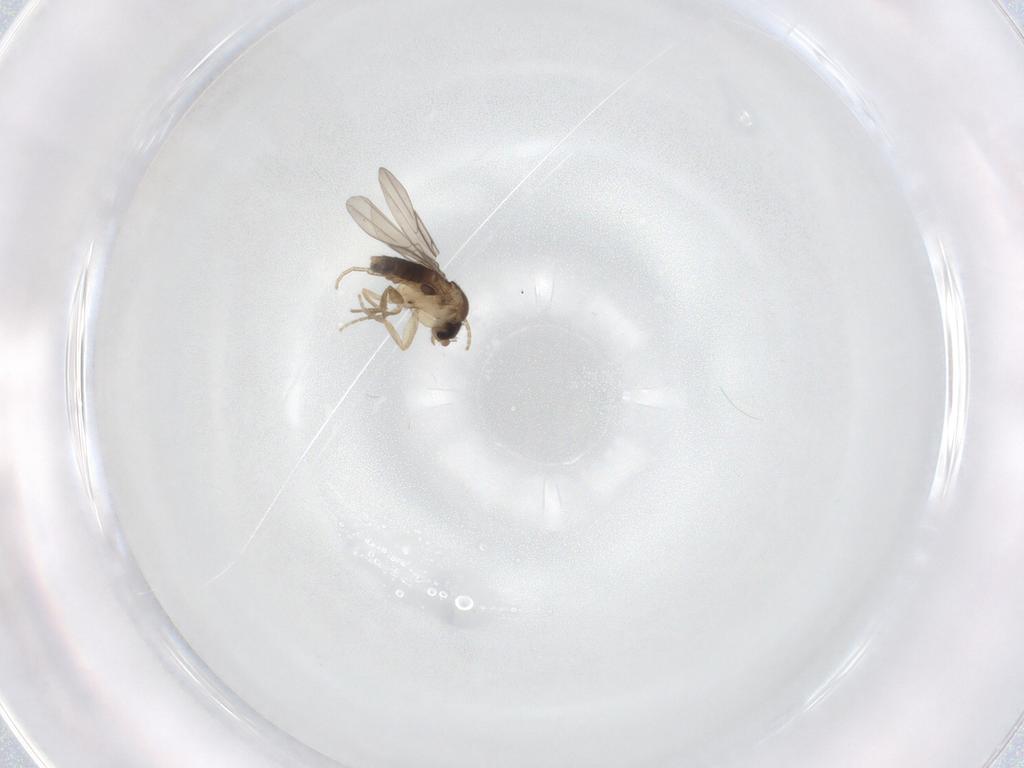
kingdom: Animalia
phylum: Arthropoda
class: Insecta
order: Diptera
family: Phoridae
